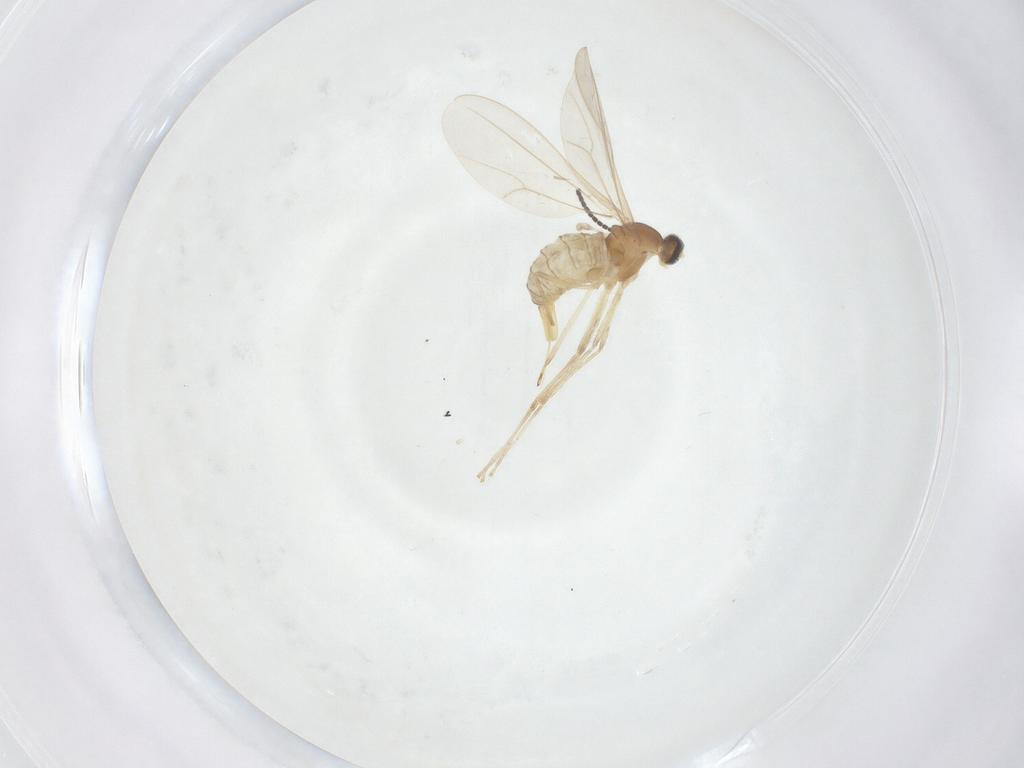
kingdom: Animalia
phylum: Arthropoda
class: Insecta
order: Diptera
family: Cecidomyiidae
